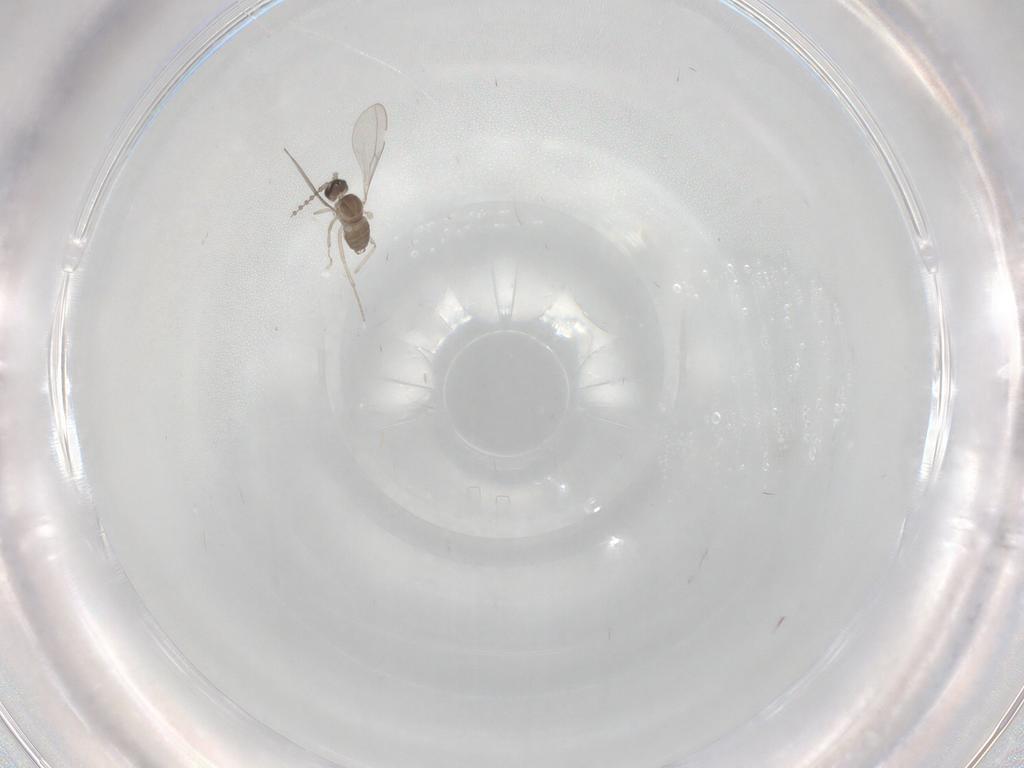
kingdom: Animalia
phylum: Arthropoda
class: Insecta
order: Diptera
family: Cecidomyiidae
